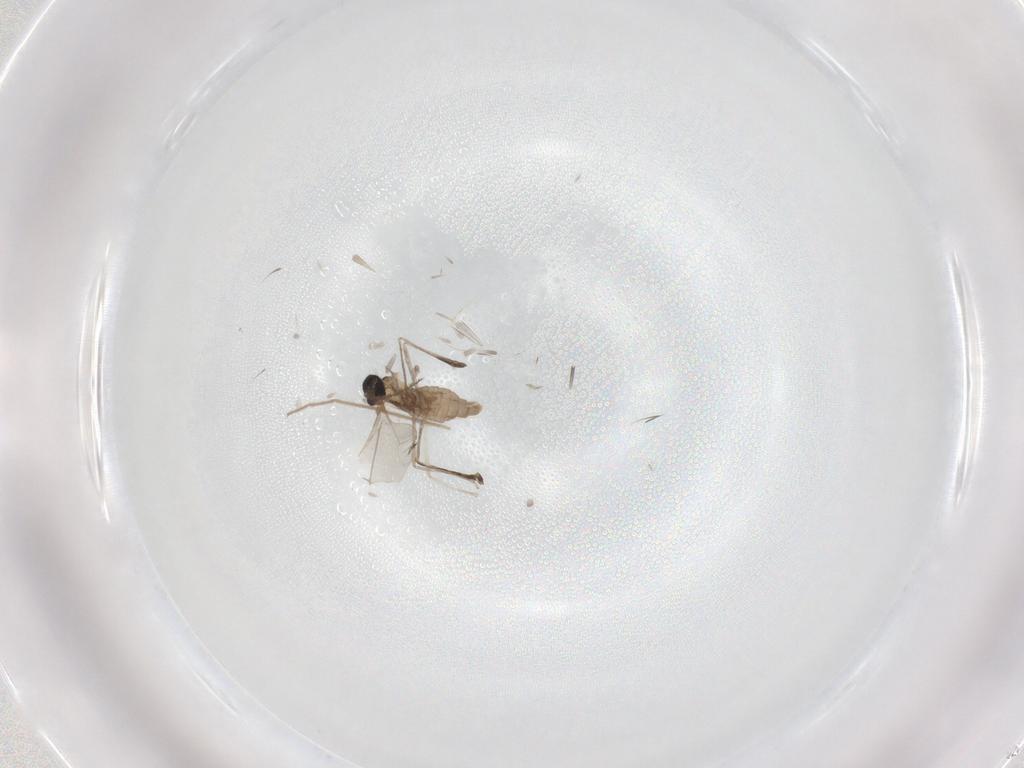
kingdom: Animalia
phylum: Arthropoda
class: Insecta
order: Diptera
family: Chironomidae
